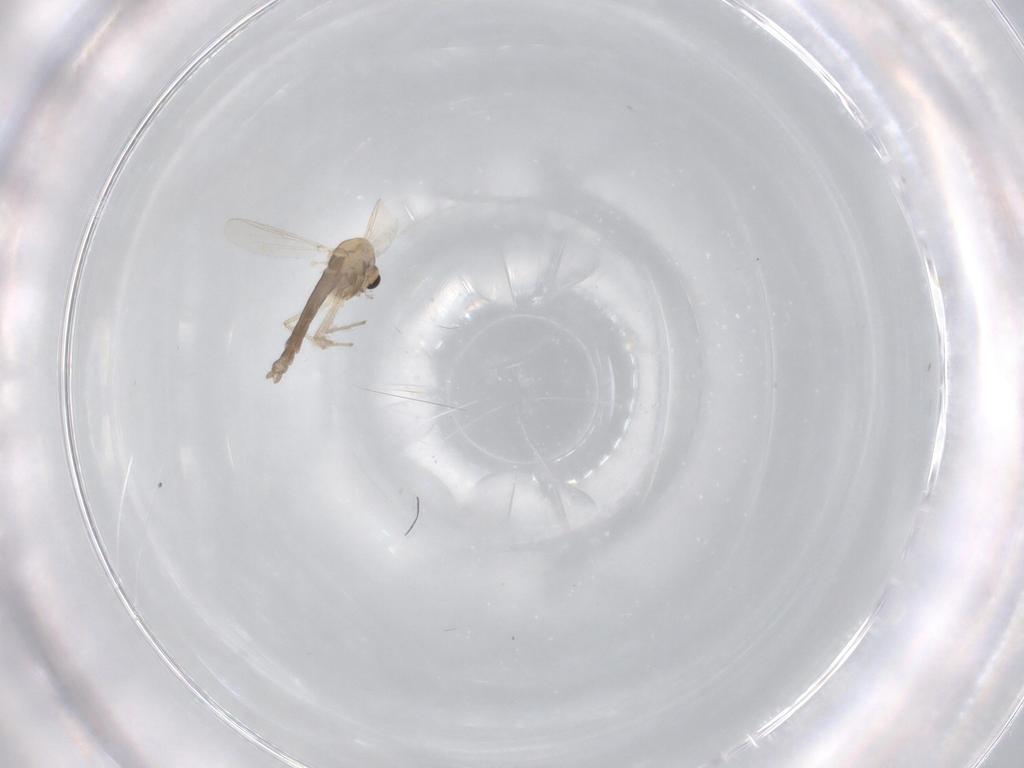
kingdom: Animalia
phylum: Arthropoda
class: Insecta
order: Diptera
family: Chironomidae
